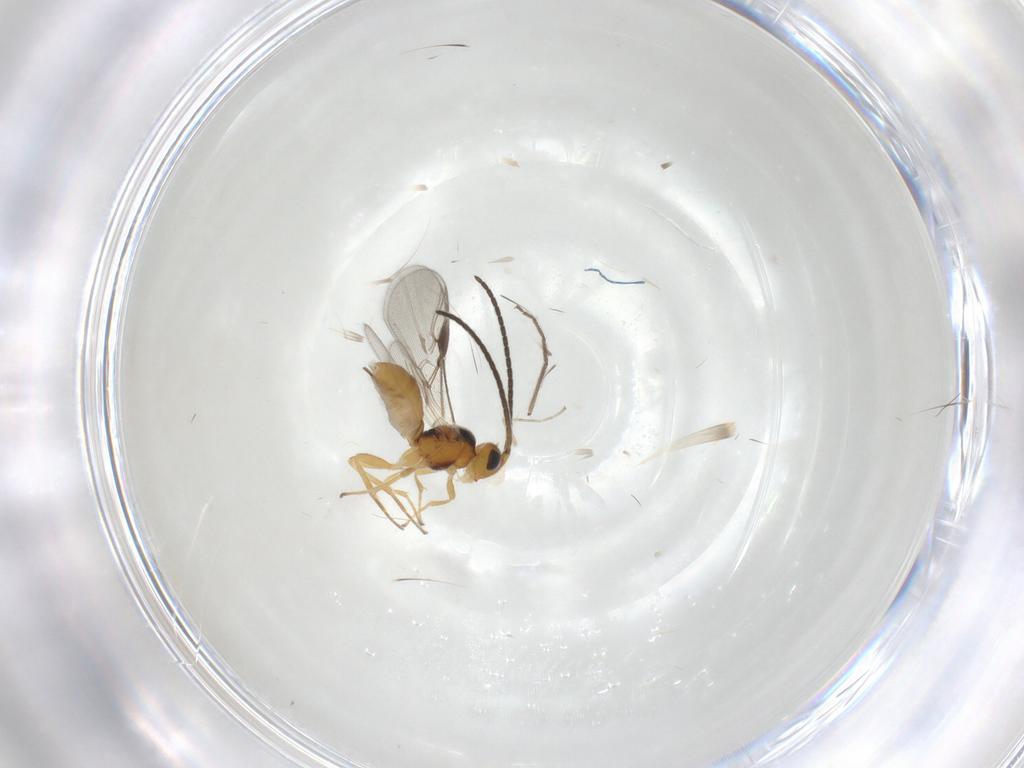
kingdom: Animalia
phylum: Arthropoda
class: Insecta
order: Hymenoptera
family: Braconidae
